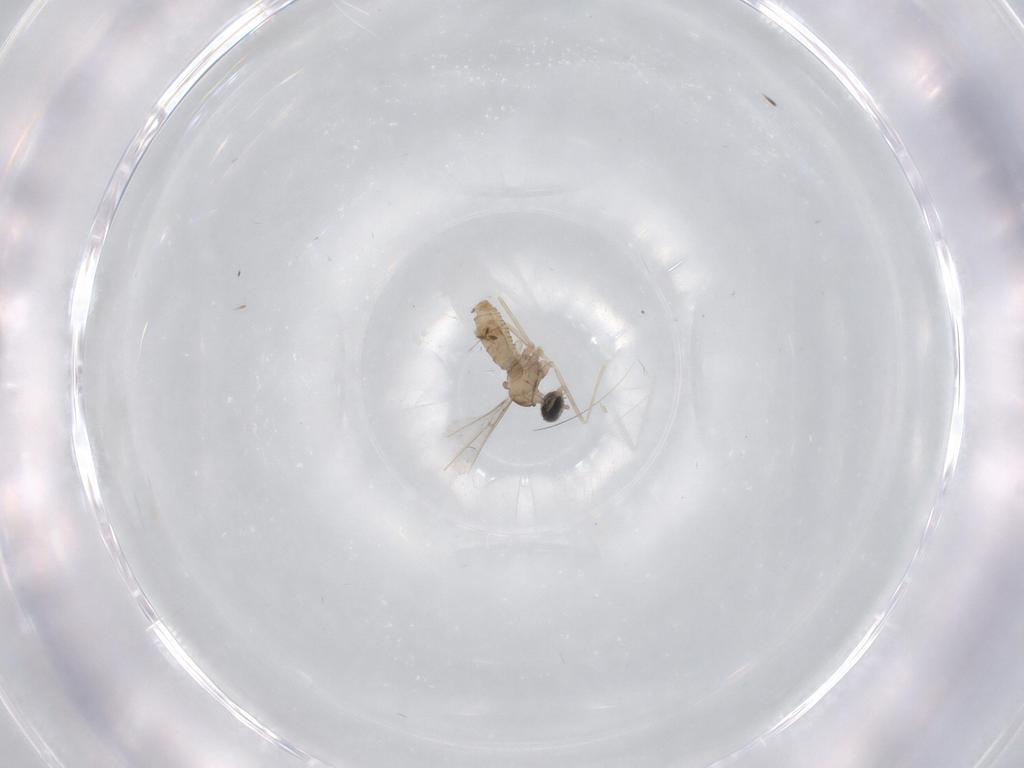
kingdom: Animalia
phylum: Arthropoda
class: Insecta
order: Diptera
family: Cecidomyiidae
